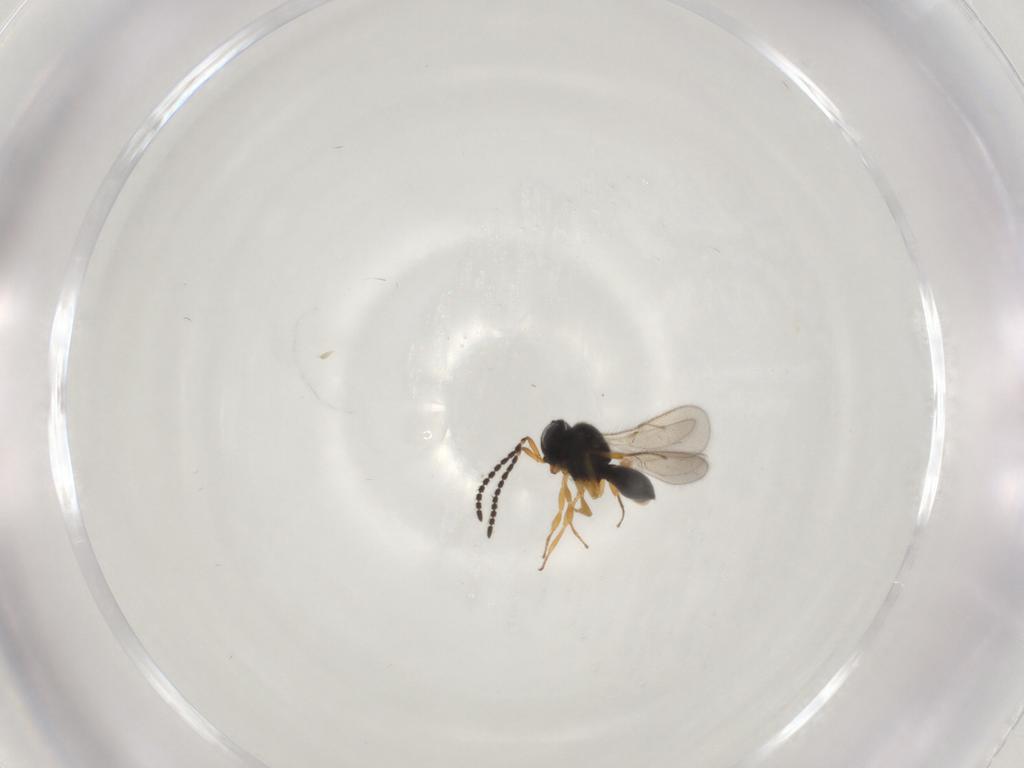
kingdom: Animalia
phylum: Arthropoda
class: Insecta
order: Hymenoptera
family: Scelionidae
